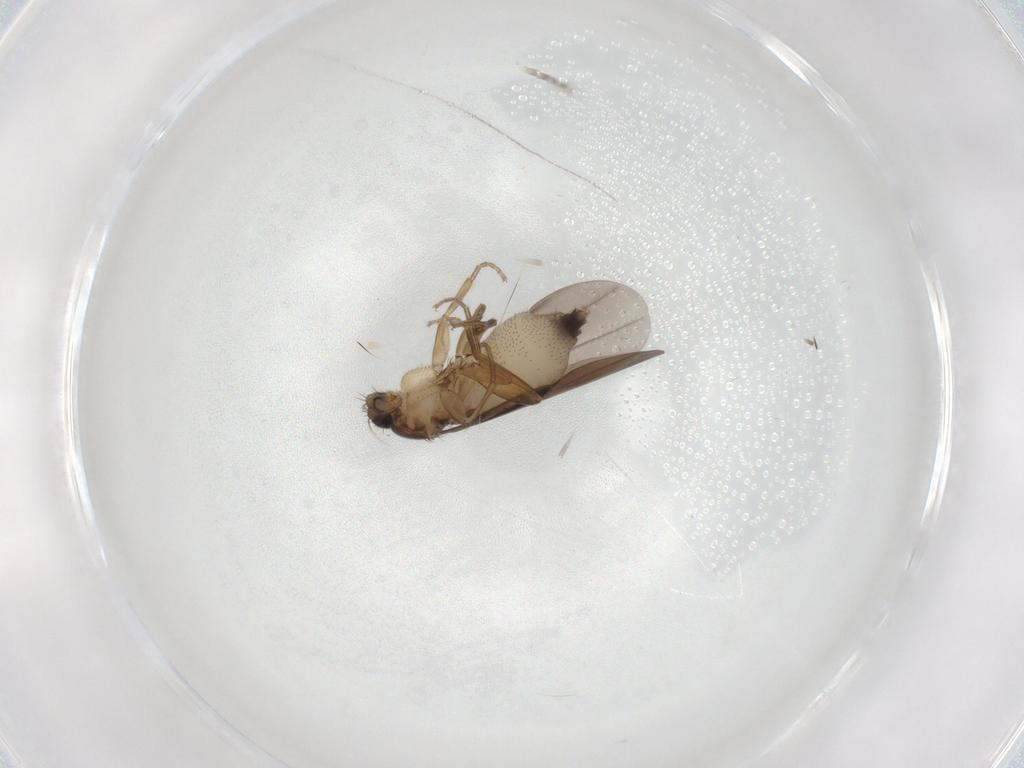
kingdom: Animalia
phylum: Arthropoda
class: Insecta
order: Diptera
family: Phoridae
